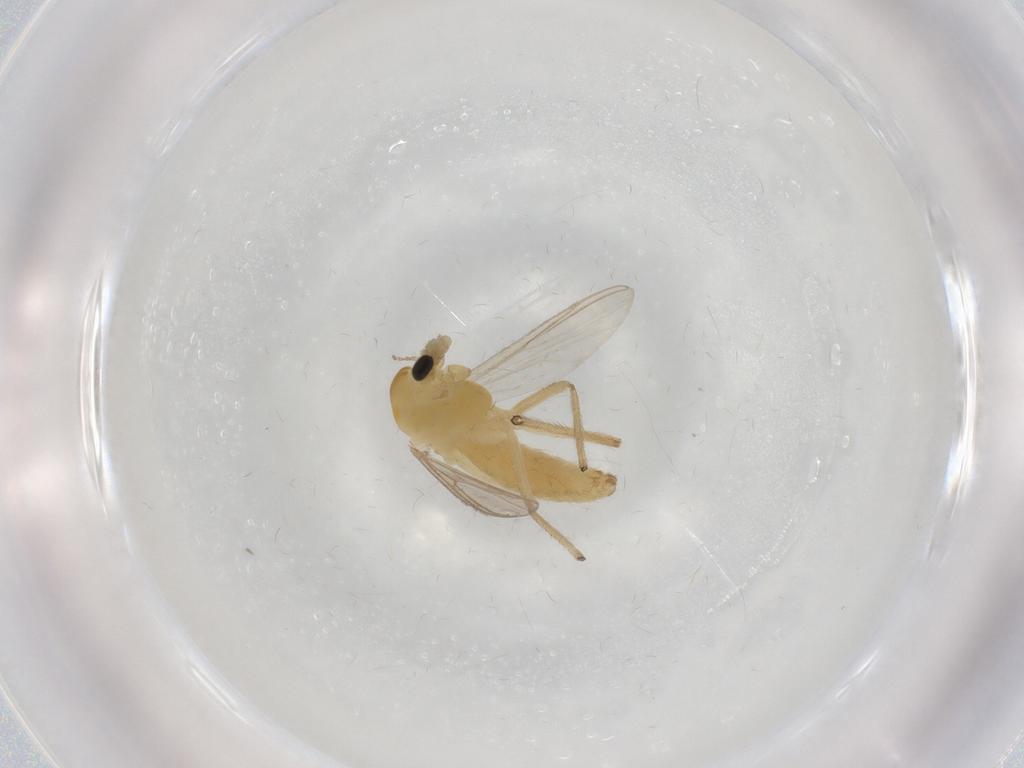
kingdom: Animalia
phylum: Arthropoda
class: Insecta
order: Diptera
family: Chironomidae
